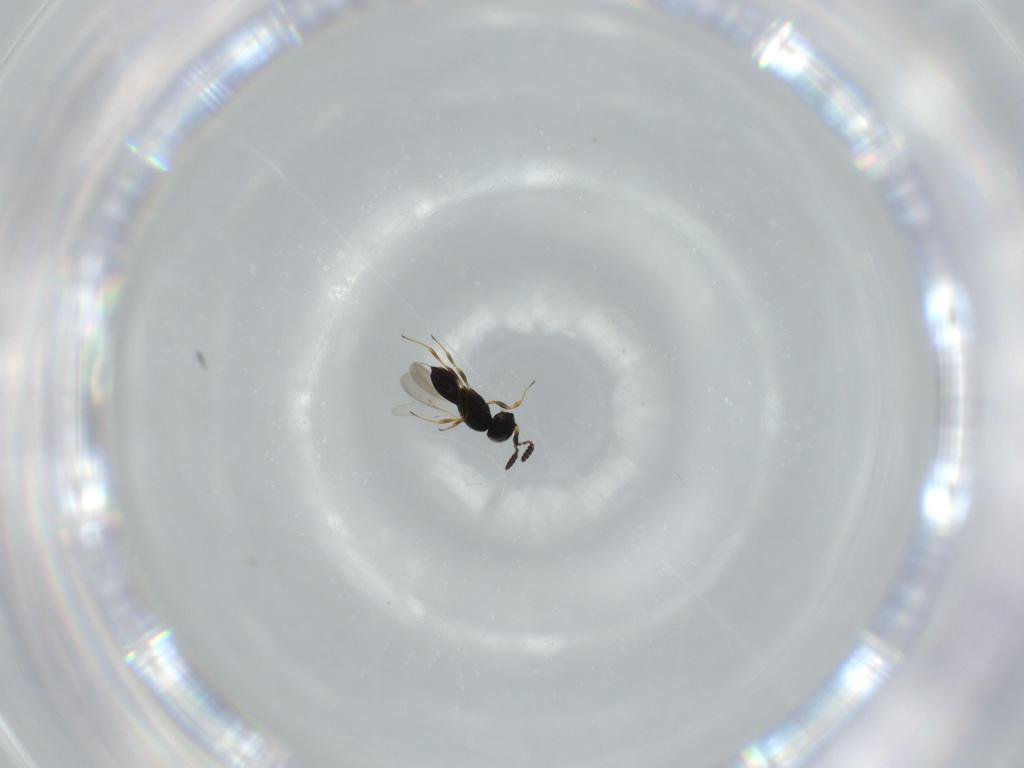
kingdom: Animalia
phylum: Arthropoda
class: Insecta
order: Hymenoptera
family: Scelionidae
